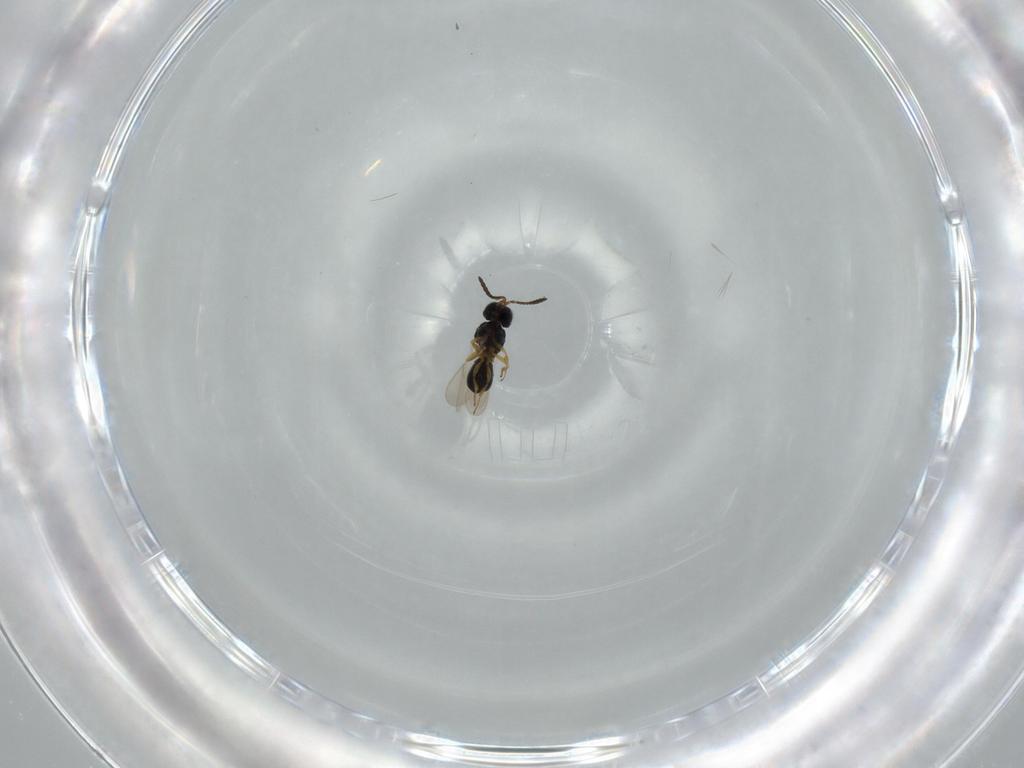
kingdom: Animalia
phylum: Arthropoda
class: Insecta
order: Hymenoptera
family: Scelionidae
